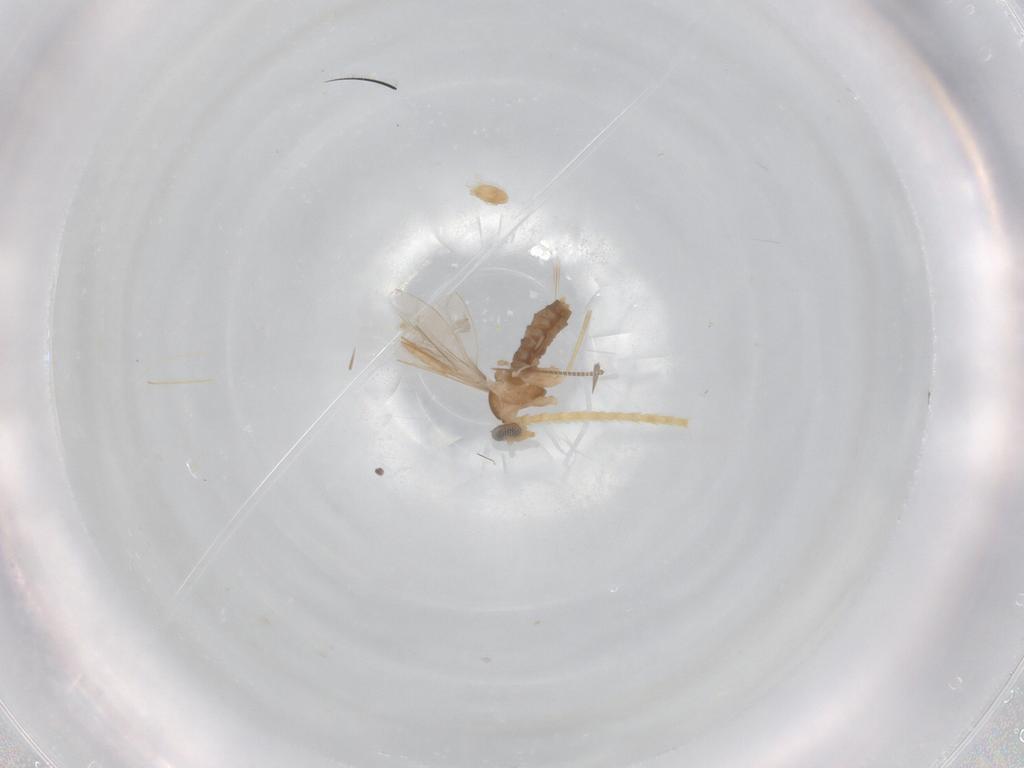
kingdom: Animalia
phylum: Arthropoda
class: Insecta
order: Diptera
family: Cecidomyiidae
